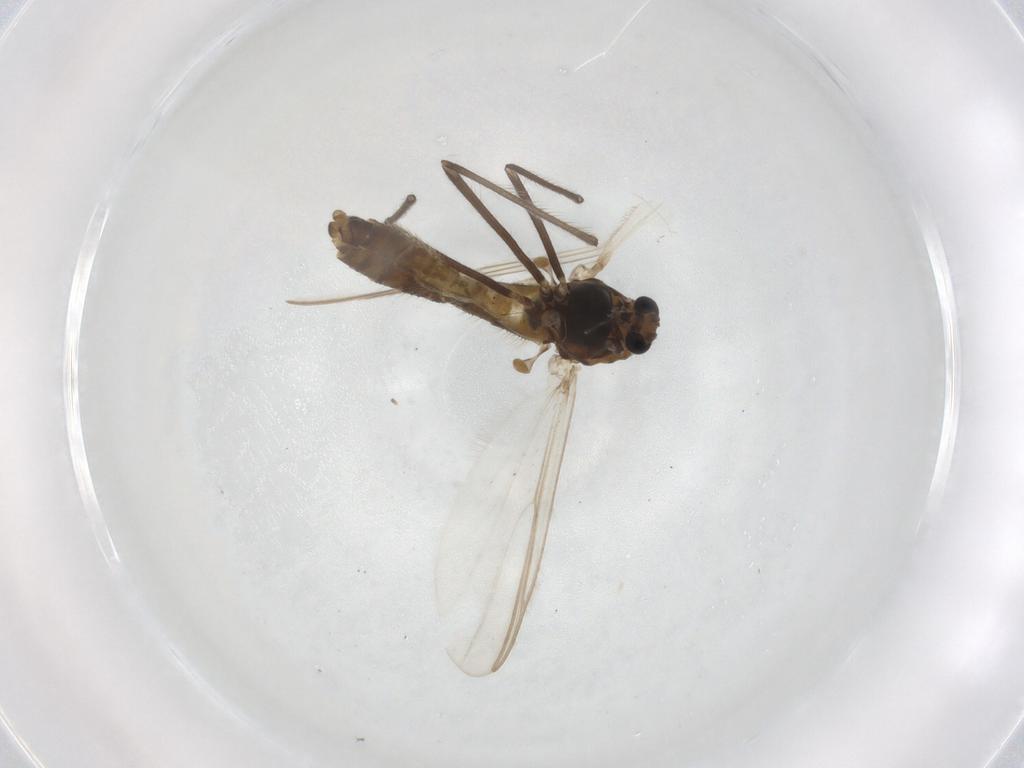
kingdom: Animalia
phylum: Arthropoda
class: Insecta
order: Diptera
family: Chironomidae
